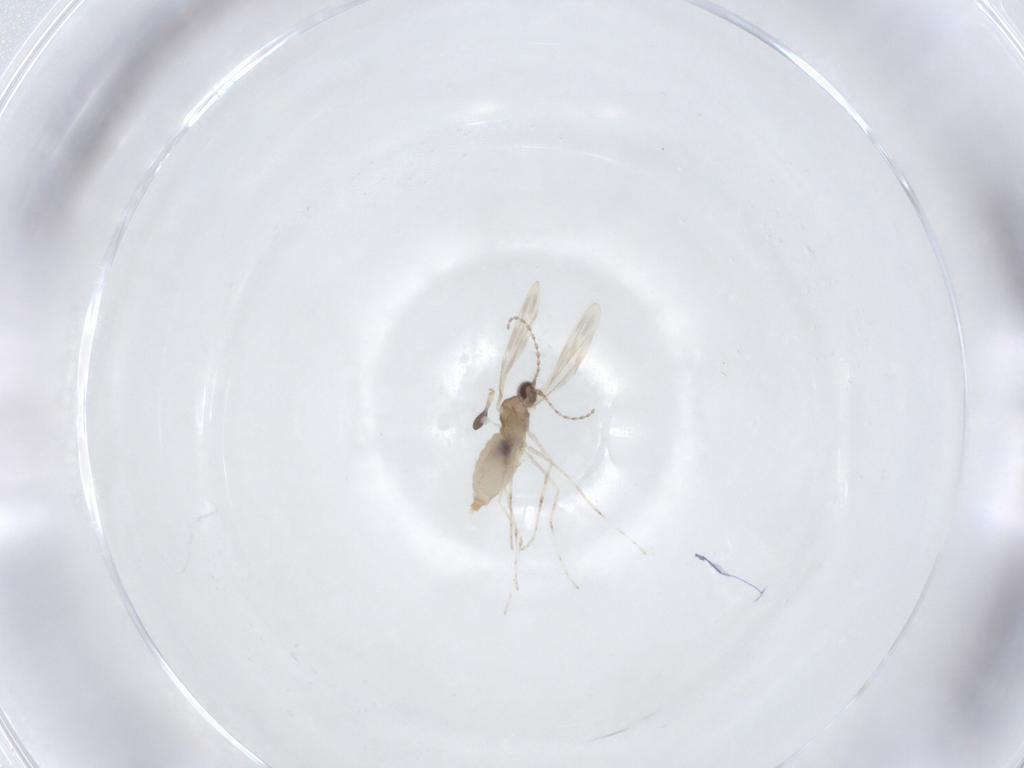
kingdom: Animalia
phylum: Arthropoda
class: Insecta
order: Diptera
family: Cecidomyiidae
